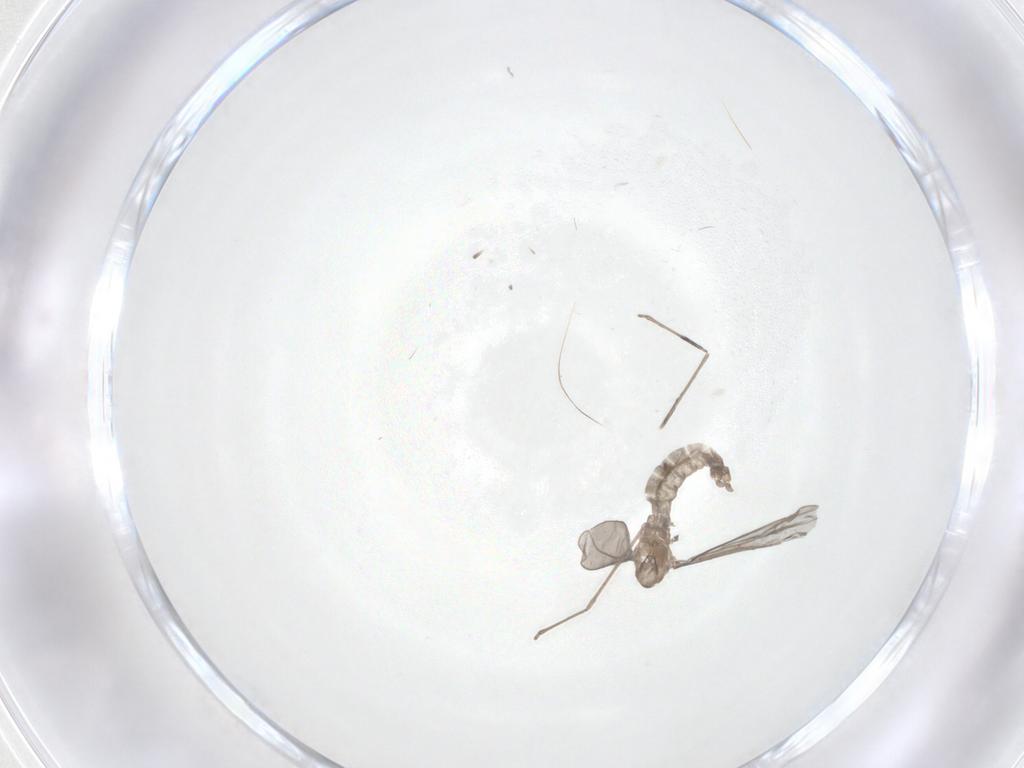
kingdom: Animalia
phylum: Arthropoda
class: Insecta
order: Diptera
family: Cecidomyiidae
